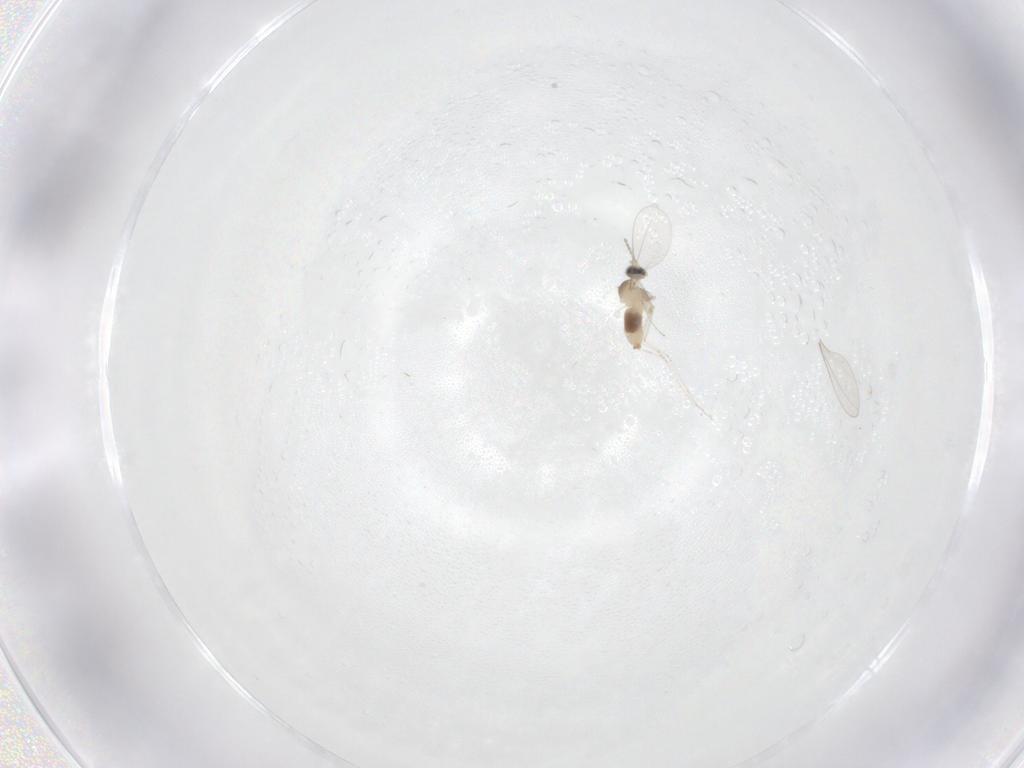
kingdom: Animalia
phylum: Arthropoda
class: Insecta
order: Diptera
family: Cecidomyiidae
